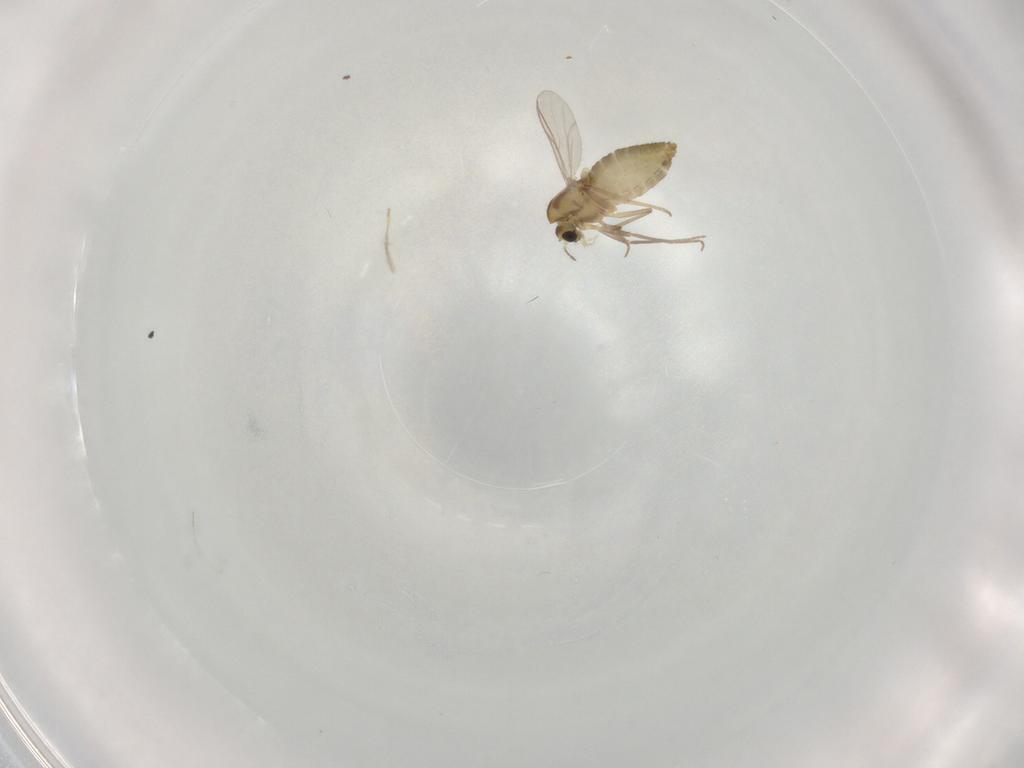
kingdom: Animalia
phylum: Arthropoda
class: Insecta
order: Diptera
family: Chironomidae
